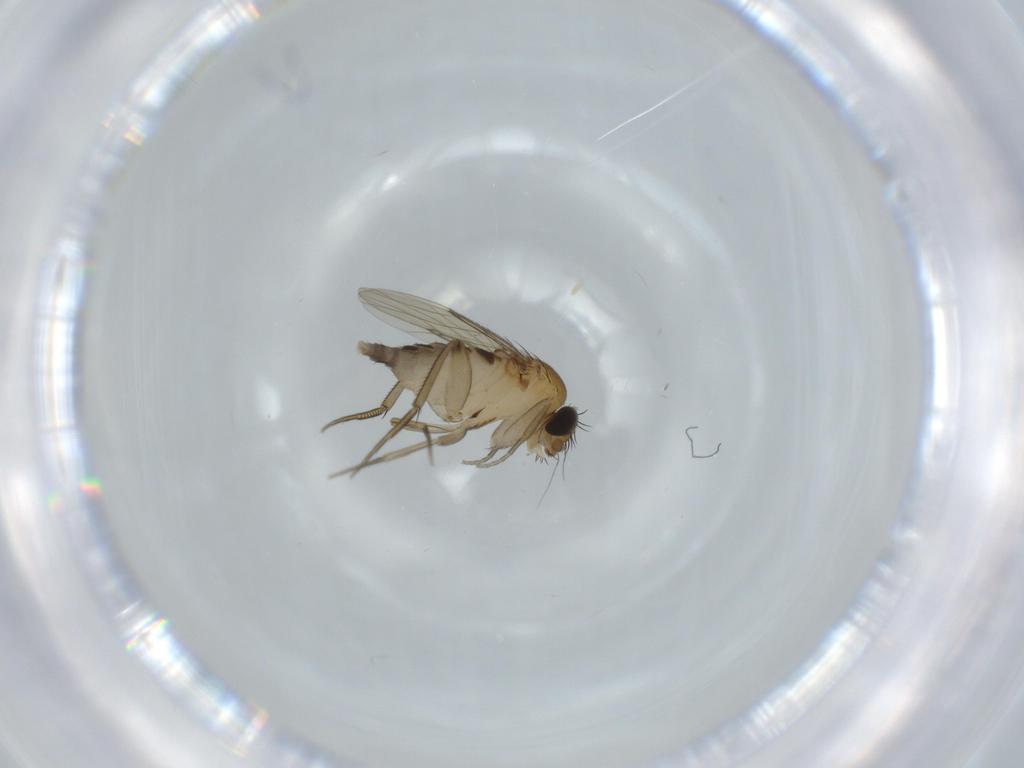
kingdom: Animalia
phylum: Arthropoda
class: Insecta
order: Diptera
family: Phoridae
